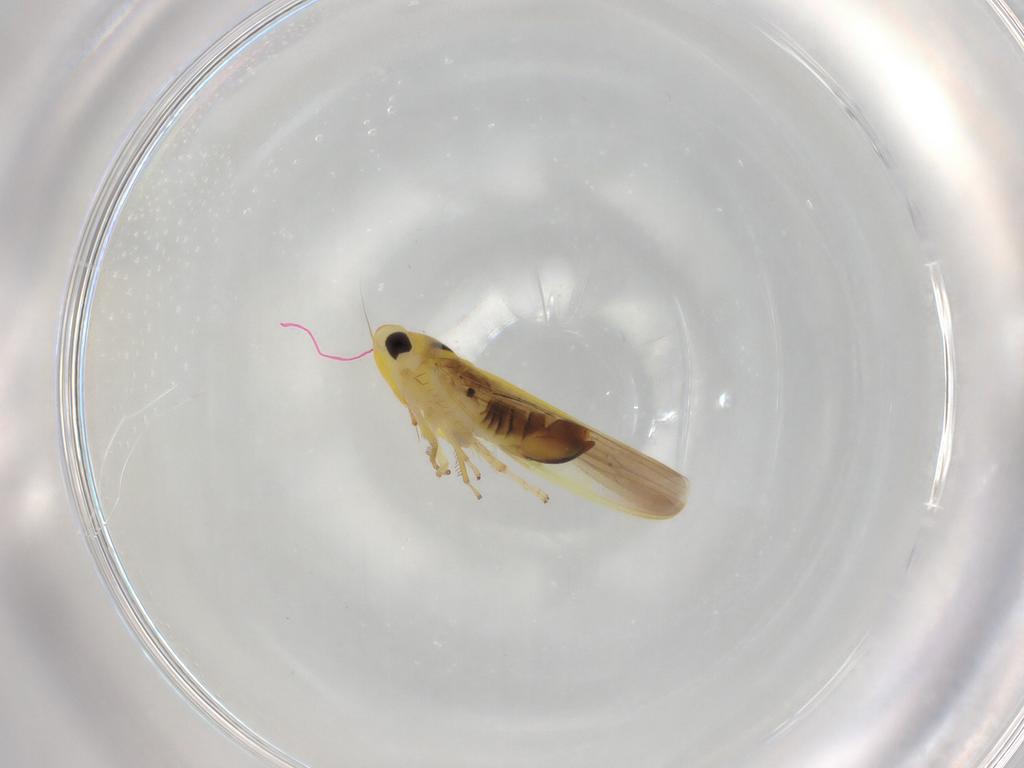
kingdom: Animalia
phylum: Arthropoda
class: Insecta
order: Hemiptera
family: Cicadellidae
